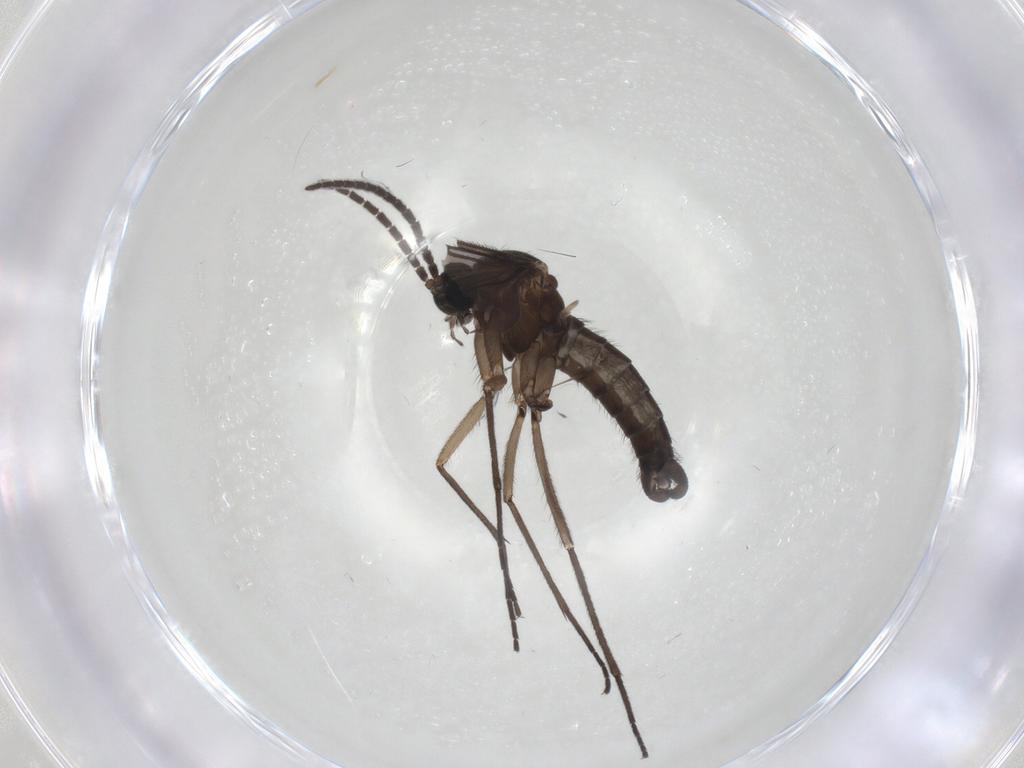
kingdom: Animalia
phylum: Arthropoda
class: Insecta
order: Diptera
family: Sciaridae
